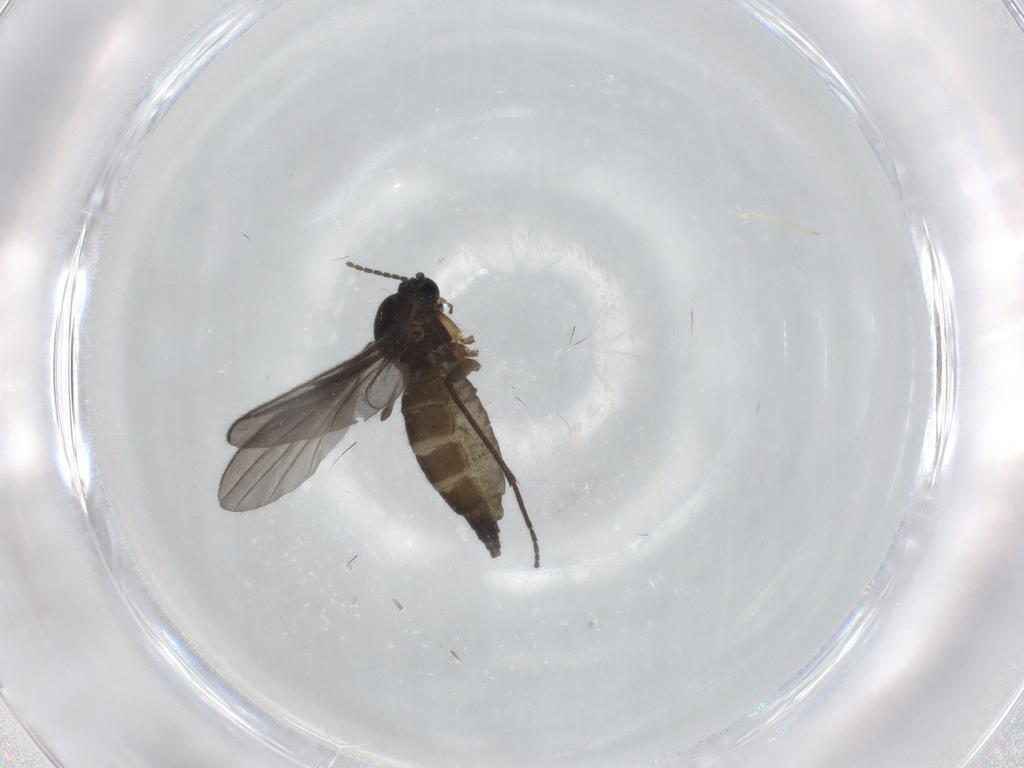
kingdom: Animalia
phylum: Arthropoda
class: Insecta
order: Diptera
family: Sciaridae
